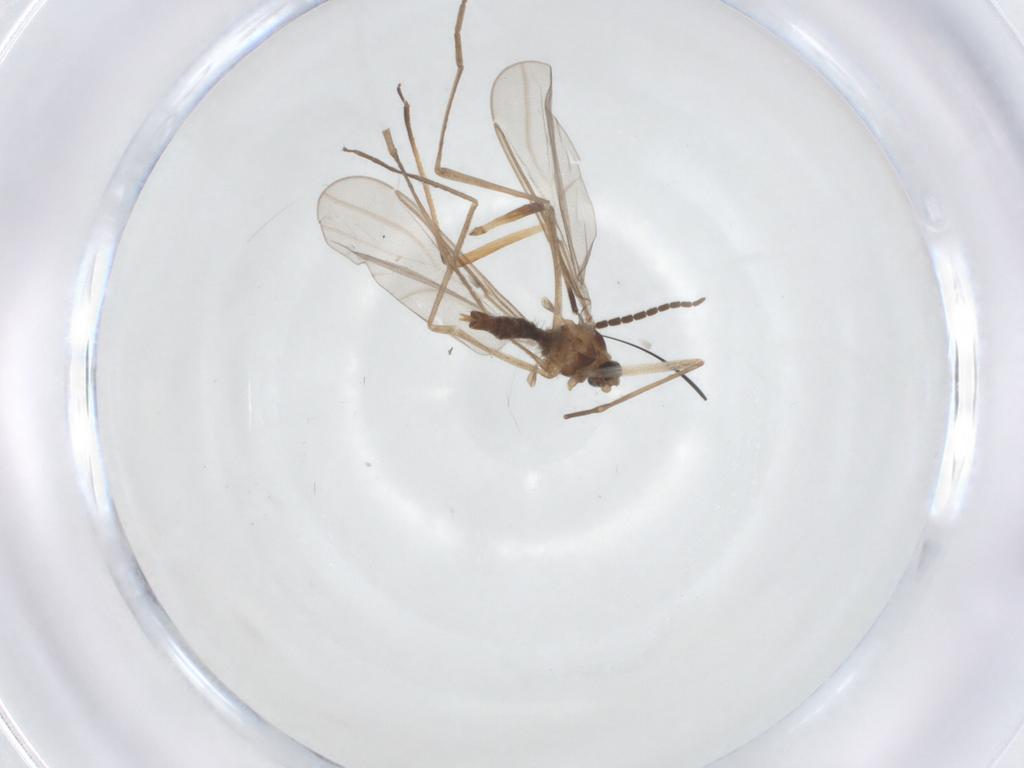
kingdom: Animalia
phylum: Arthropoda
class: Insecta
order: Diptera
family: Cecidomyiidae
